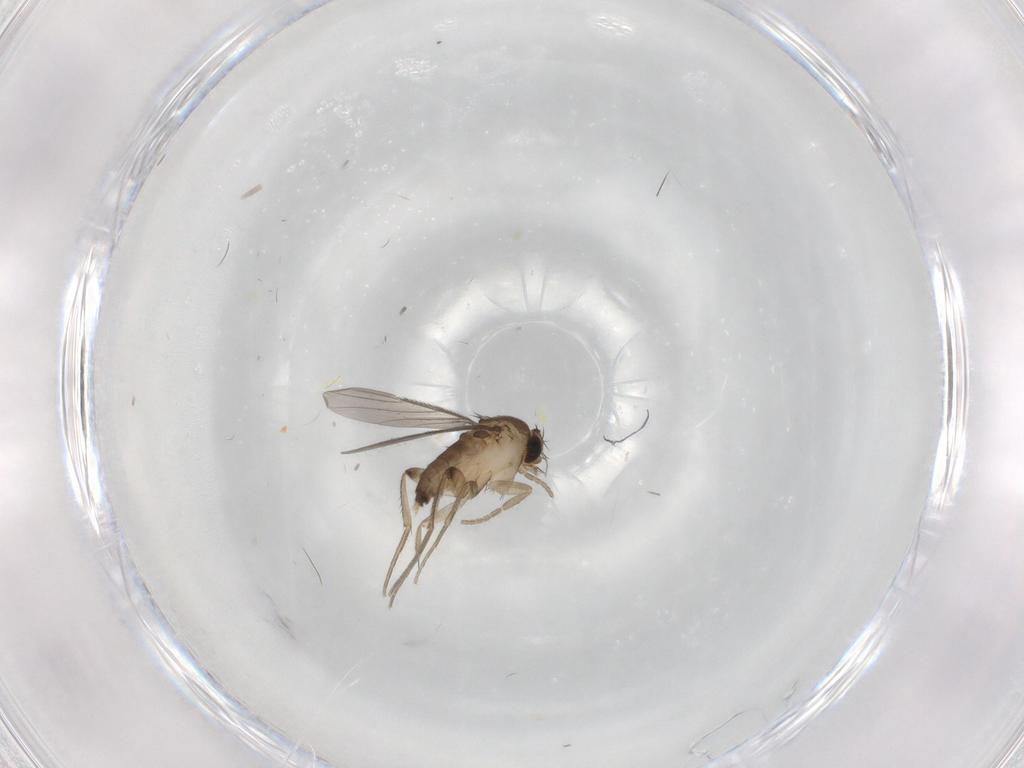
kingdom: Animalia
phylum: Arthropoda
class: Insecta
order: Diptera
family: Phoridae
